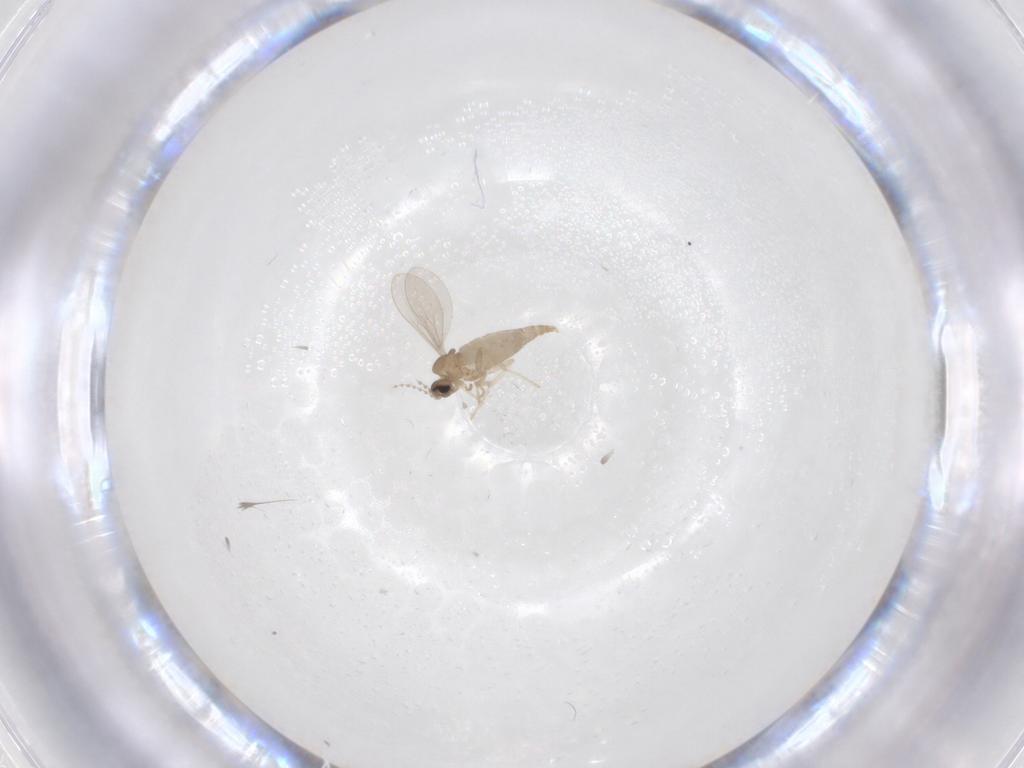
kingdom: Animalia
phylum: Arthropoda
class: Insecta
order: Diptera
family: Cecidomyiidae
